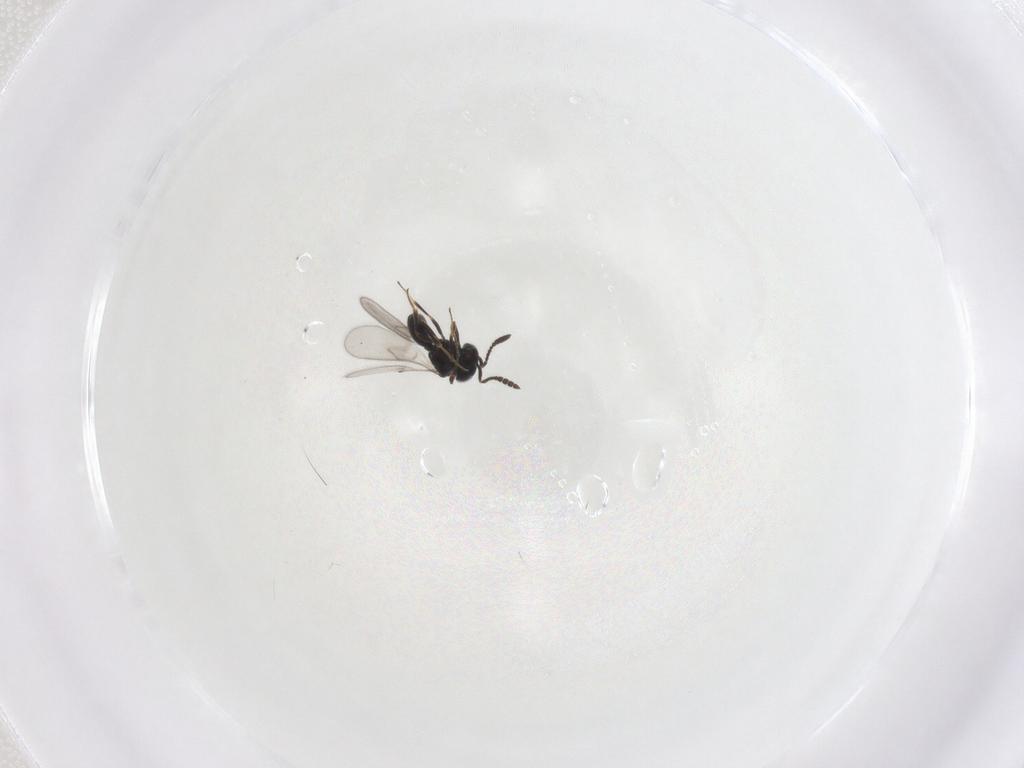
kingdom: Animalia
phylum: Arthropoda
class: Insecta
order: Hymenoptera
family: Scelionidae
